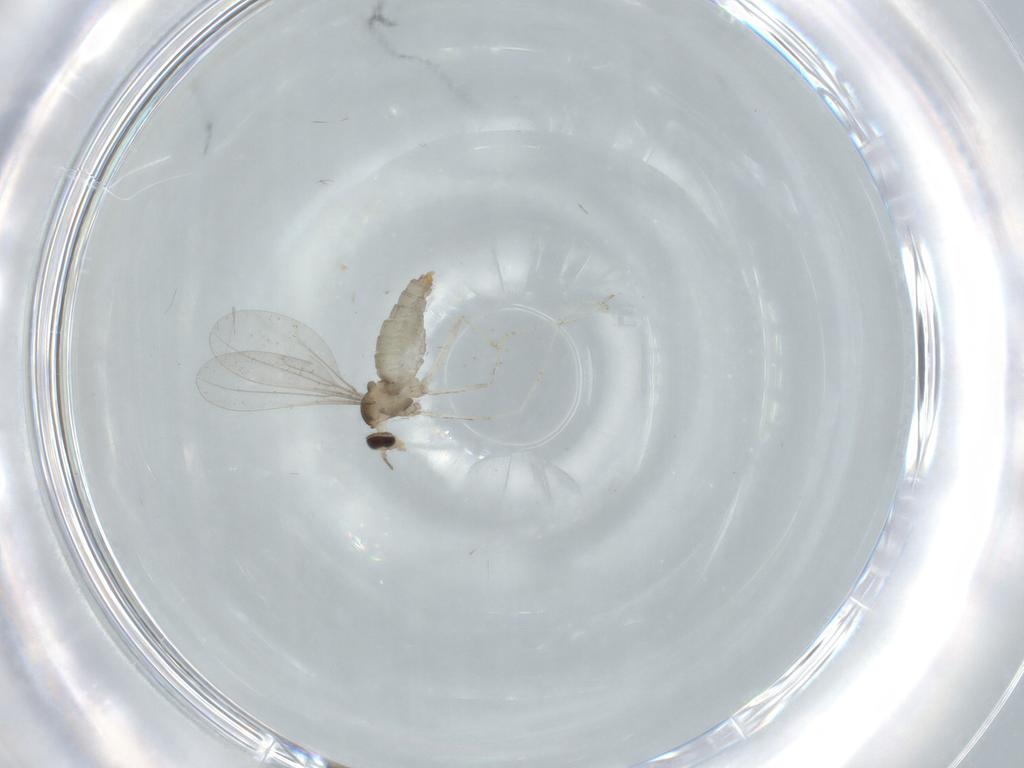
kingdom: Animalia
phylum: Arthropoda
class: Insecta
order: Diptera
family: Cecidomyiidae
